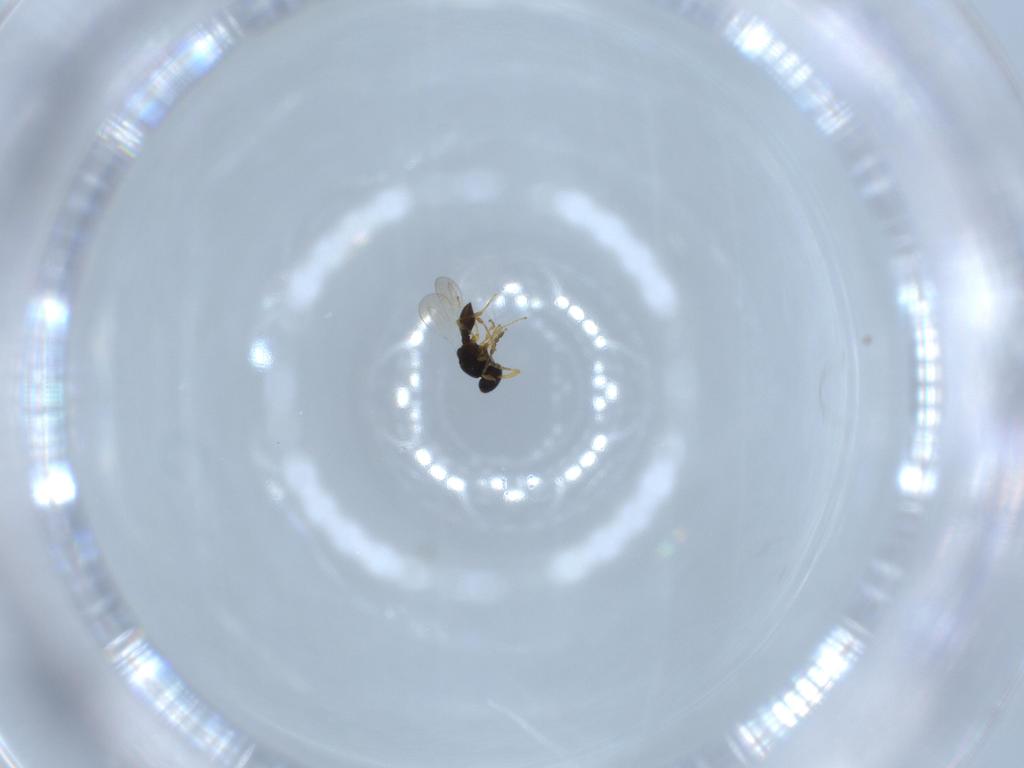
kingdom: Animalia
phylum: Arthropoda
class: Insecta
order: Hymenoptera
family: Platygastridae
